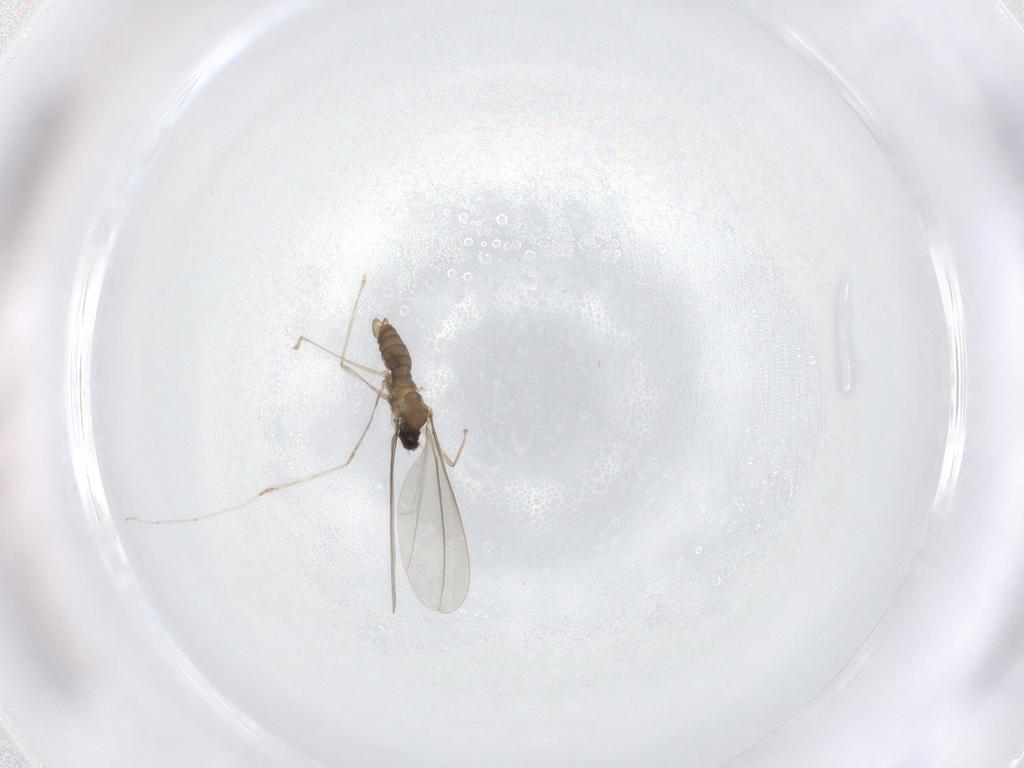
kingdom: Animalia
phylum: Arthropoda
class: Insecta
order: Diptera
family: Cecidomyiidae
